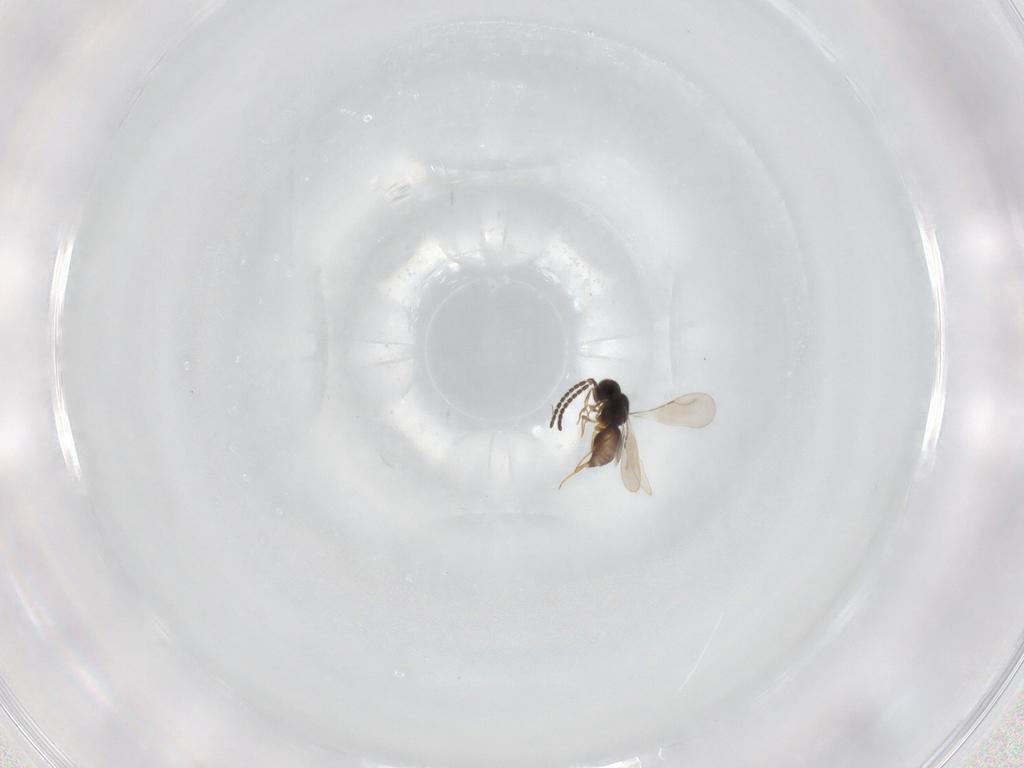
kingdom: Animalia
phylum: Arthropoda
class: Insecta
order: Hymenoptera
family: Ceraphronidae
